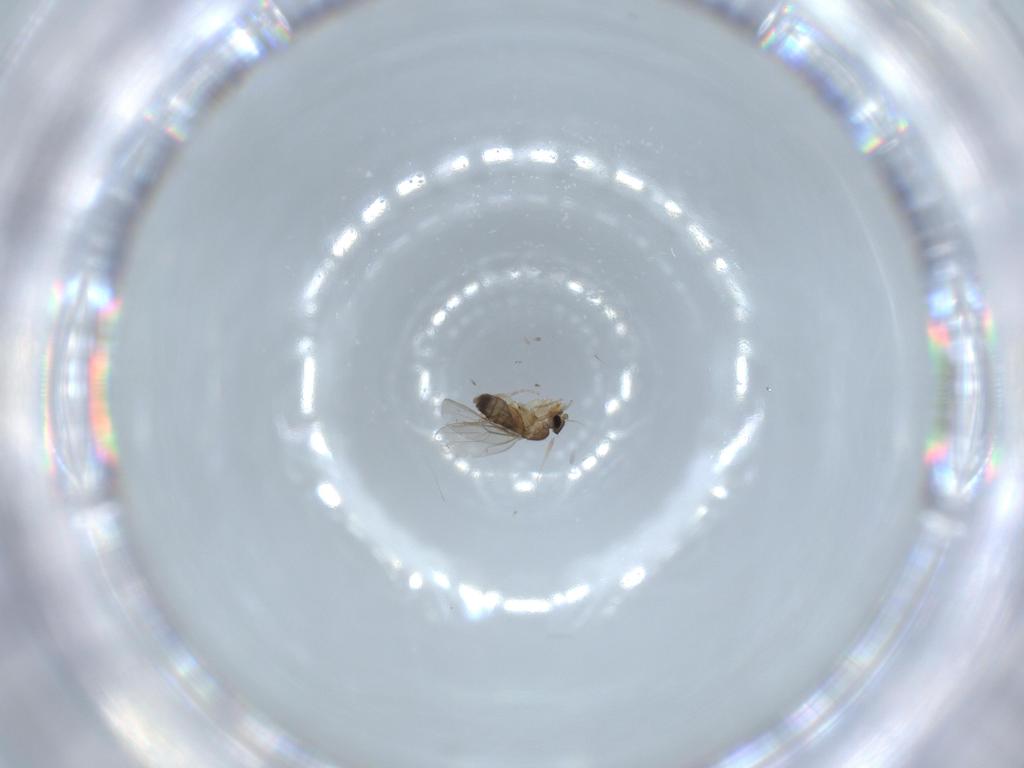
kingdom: Animalia
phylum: Arthropoda
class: Insecta
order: Diptera
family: Phoridae
